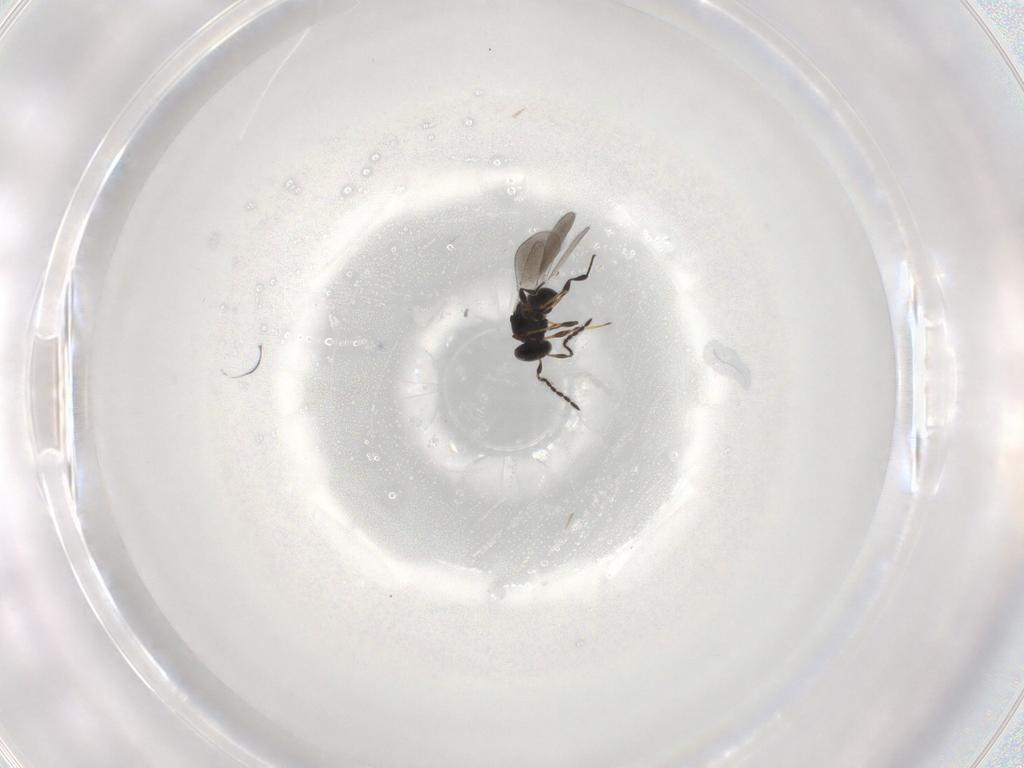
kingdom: Animalia
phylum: Arthropoda
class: Insecta
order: Hymenoptera
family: Platygastridae
